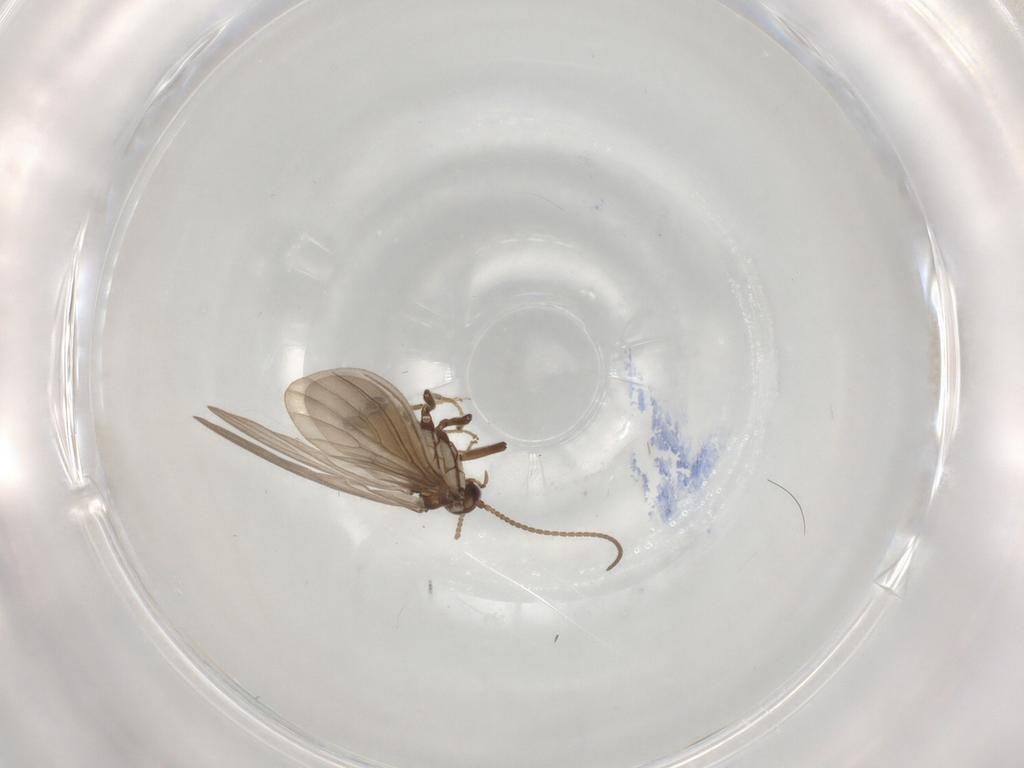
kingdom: Animalia
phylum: Arthropoda
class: Insecta
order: Neuroptera
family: Coniopterygidae
